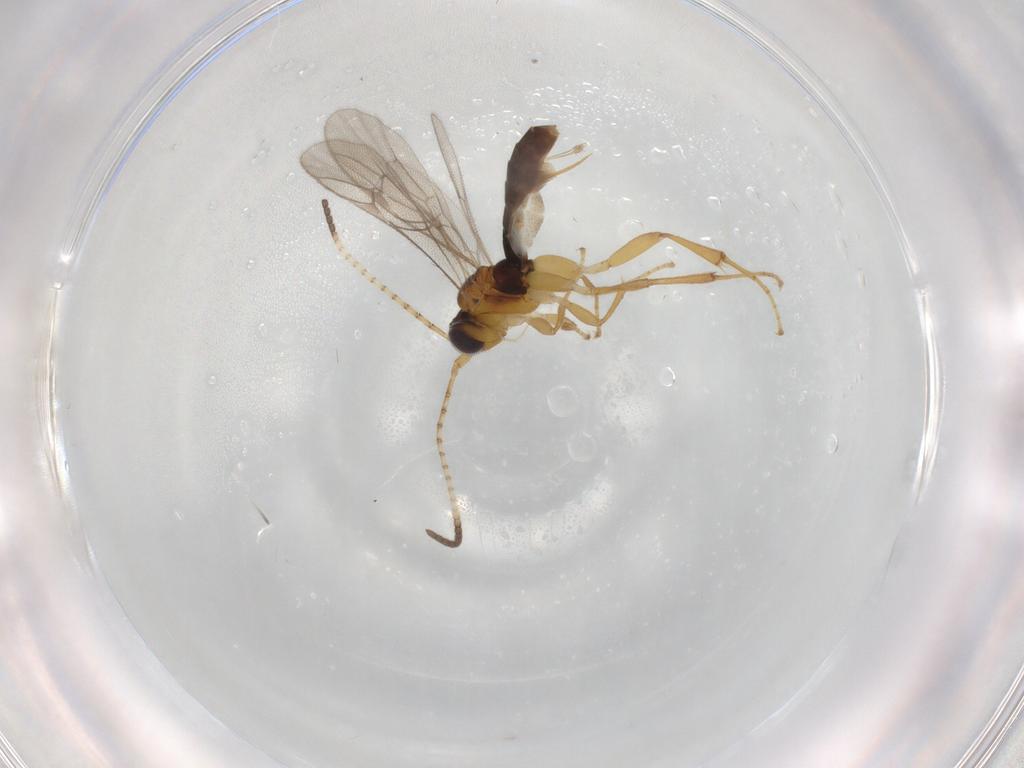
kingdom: Animalia
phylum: Arthropoda
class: Insecta
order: Hymenoptera
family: Ichneumonidae
